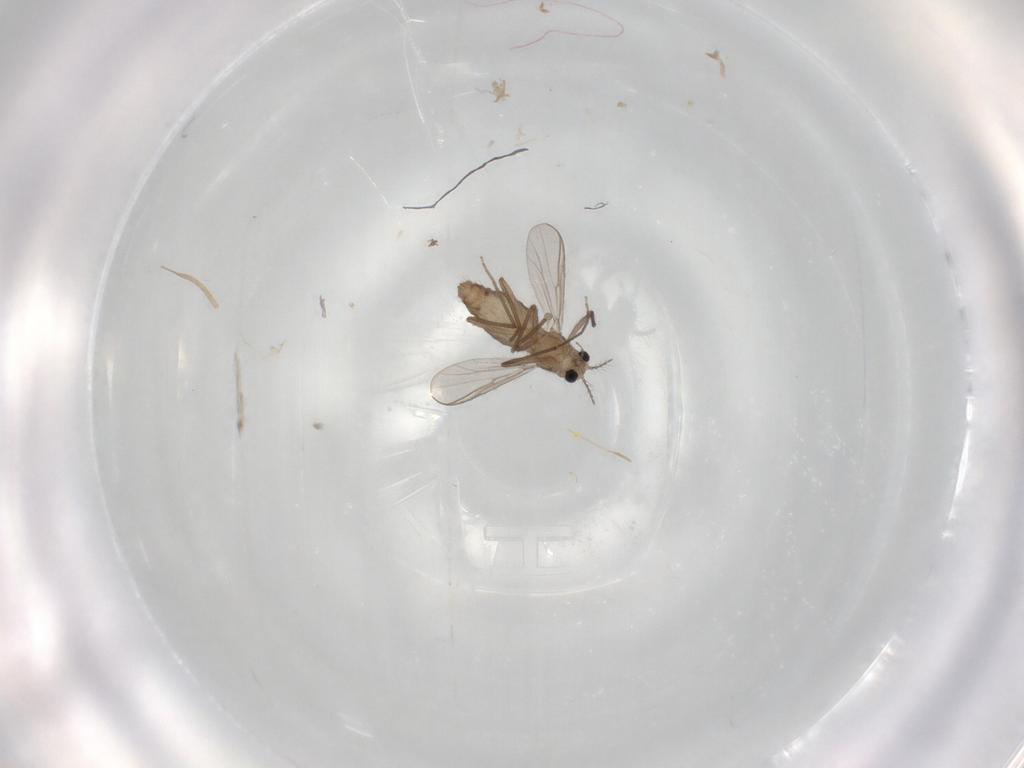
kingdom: Animalia
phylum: Arthropoda
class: Insecta
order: Diptera
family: Chironomidae
